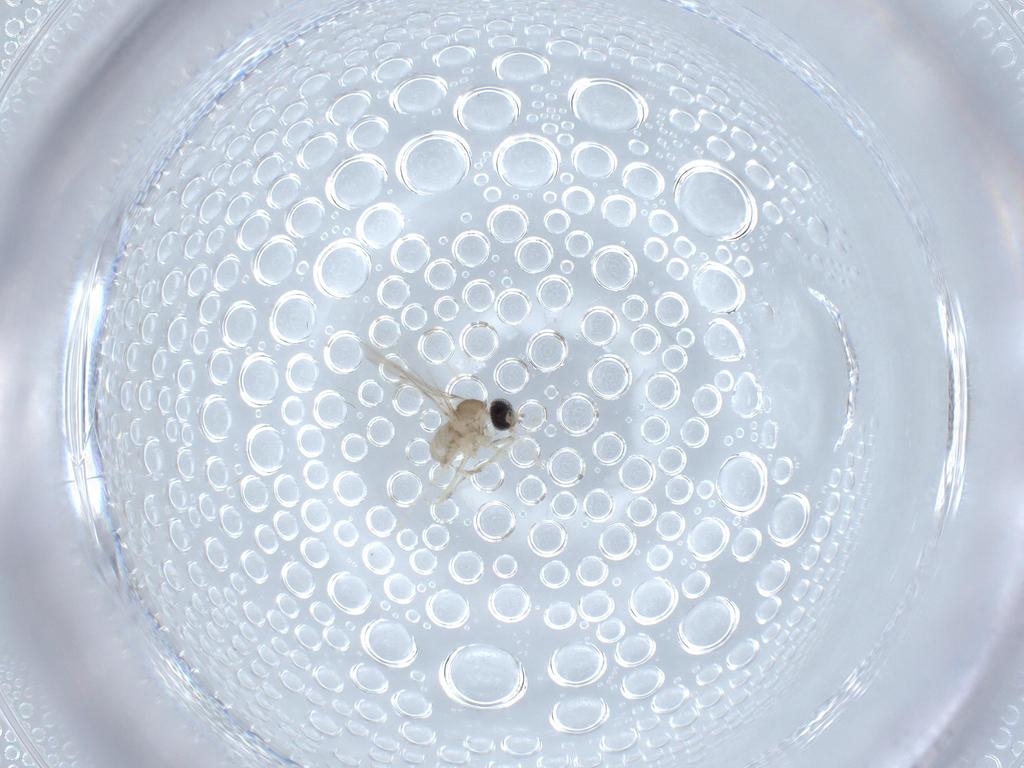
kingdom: Animalia
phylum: Arthropoda
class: Insecta
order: Diptera
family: Cecidomyiidae
